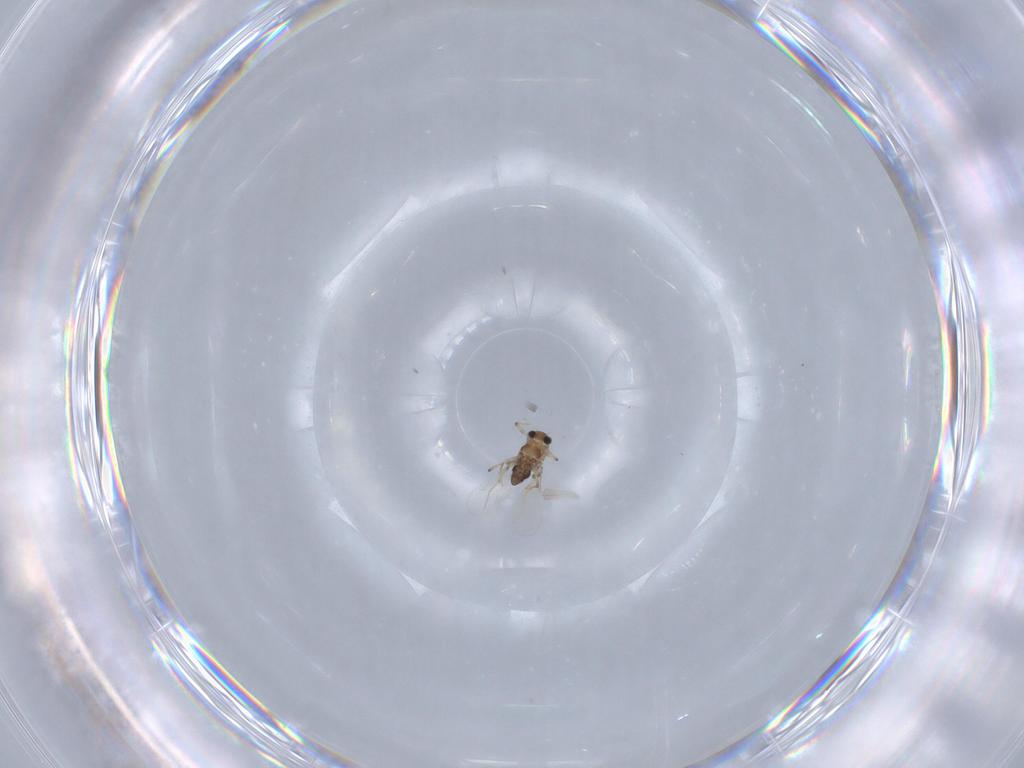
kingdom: Animalia
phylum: Arthropoda
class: Insecta
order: Diptera
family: Chironomidae
